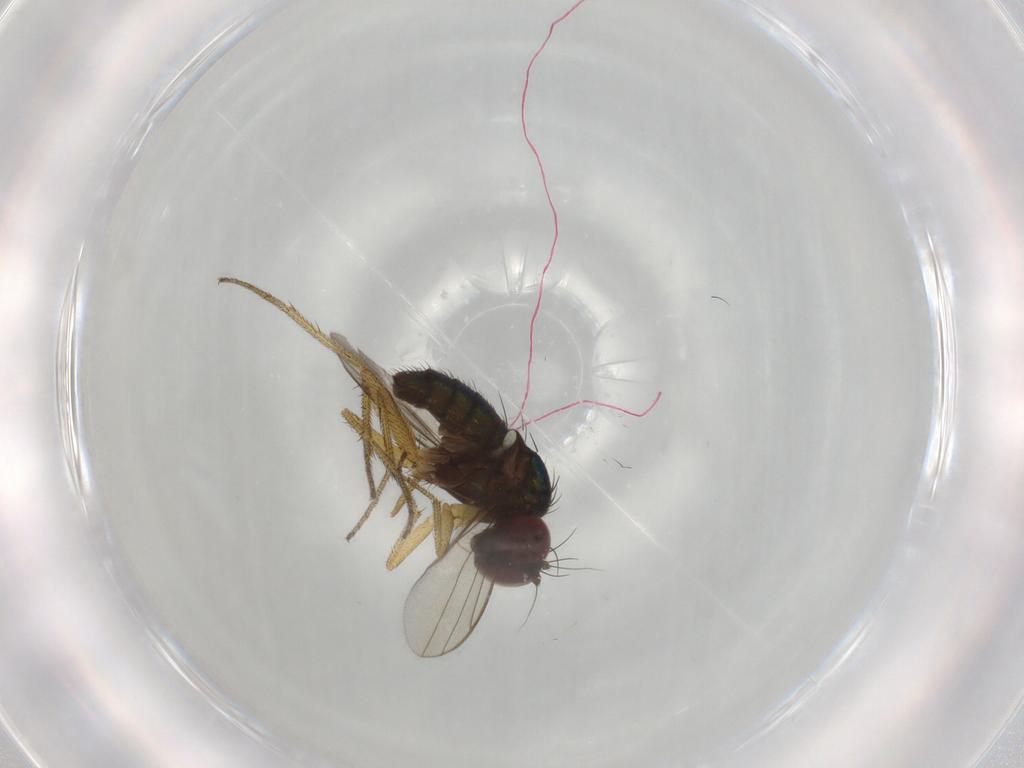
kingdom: Animalia
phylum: Arthropoda
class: Insecta
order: Diptera
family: Dolichopodidae
